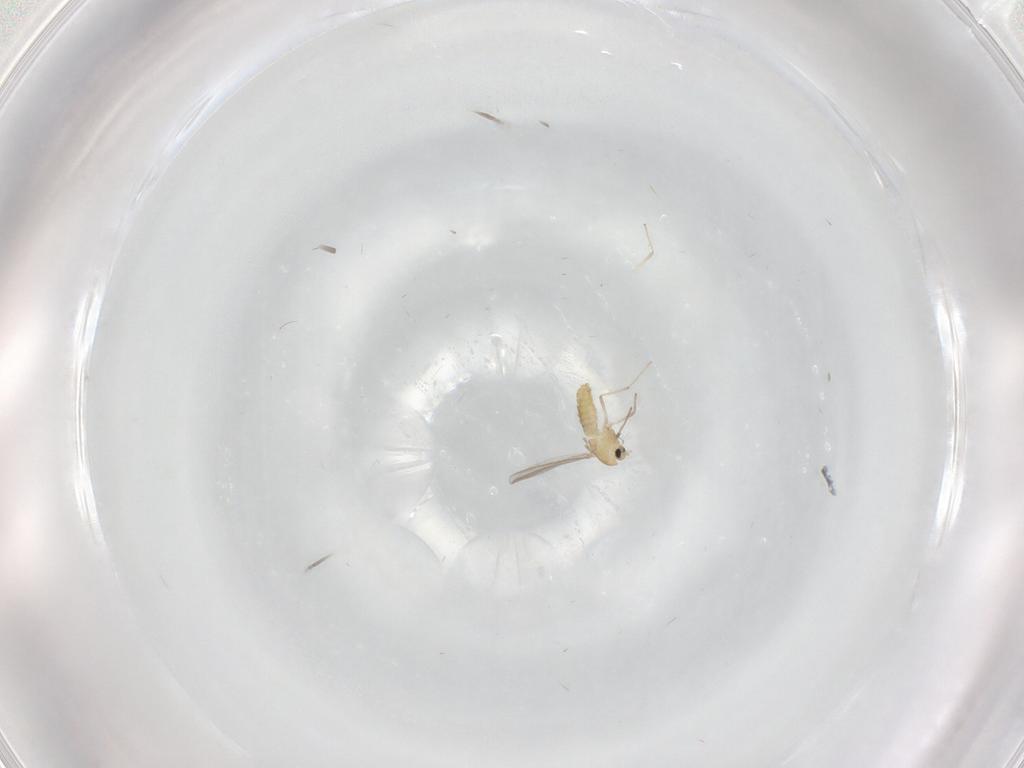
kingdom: Animalia
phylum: Arthropoda
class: Insecta
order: Diptera
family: Chironomidae
